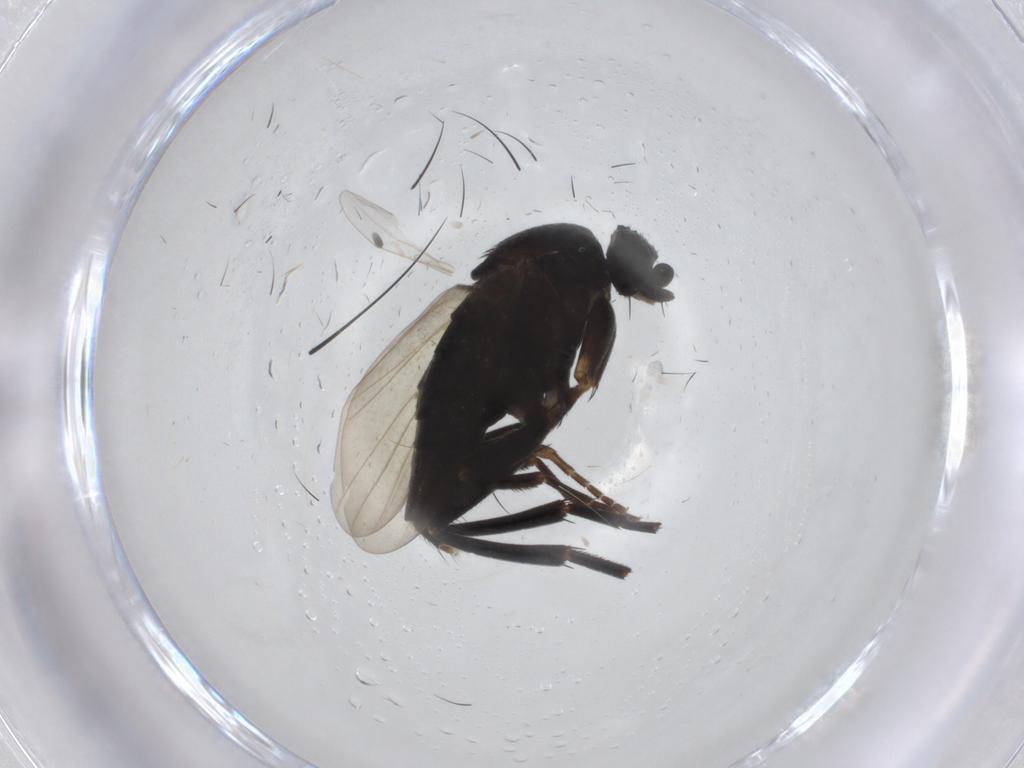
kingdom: Animalia
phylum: Arthropoda
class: Insecta
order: Diptera
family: Phoridae
